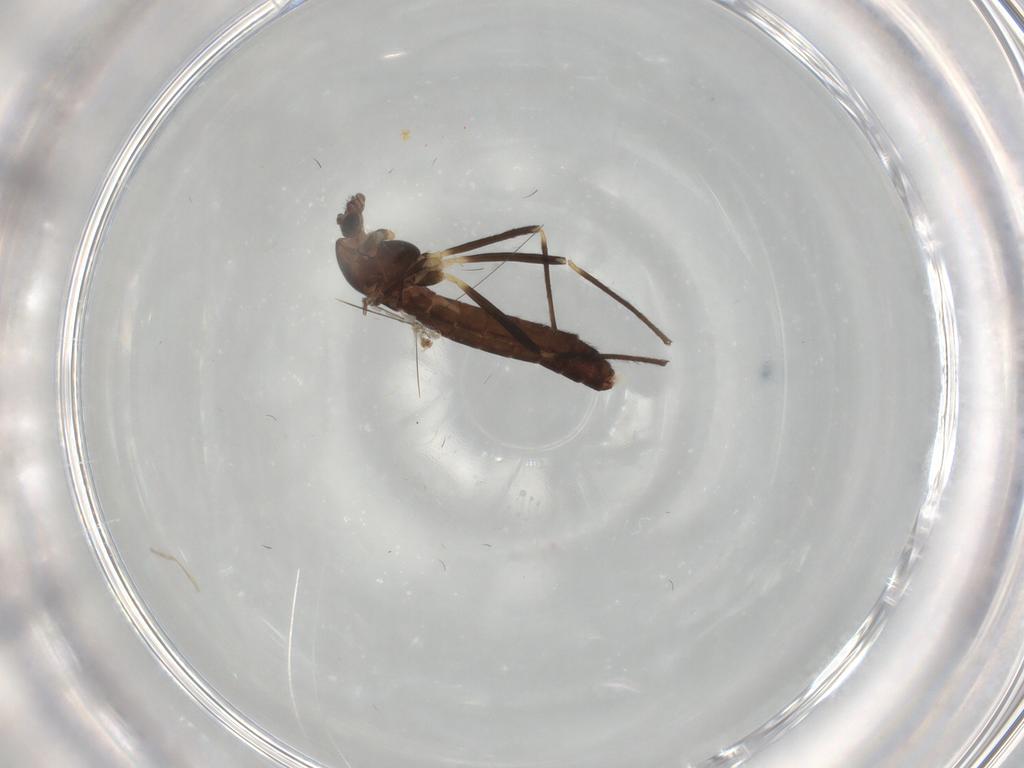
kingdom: Animalia
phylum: Arthropoda
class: Insecta
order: Diptera
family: Chironomidae
